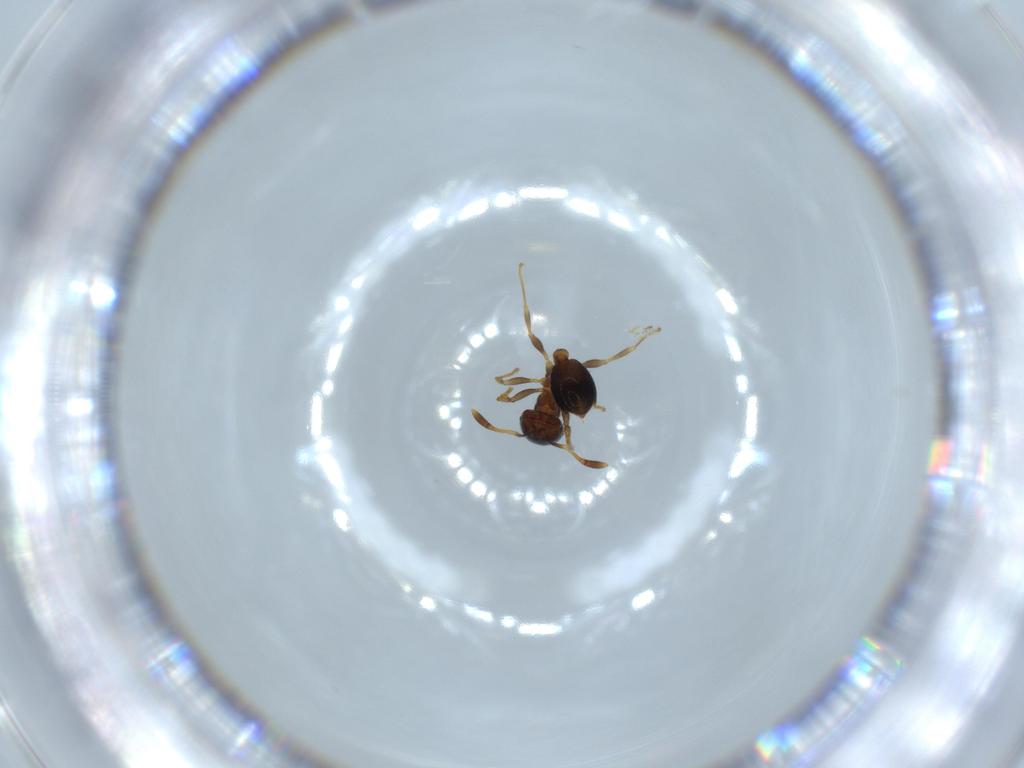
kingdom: Animalia
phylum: Arthropoda
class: Insecta
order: Hymenoptera
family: Formicidae
